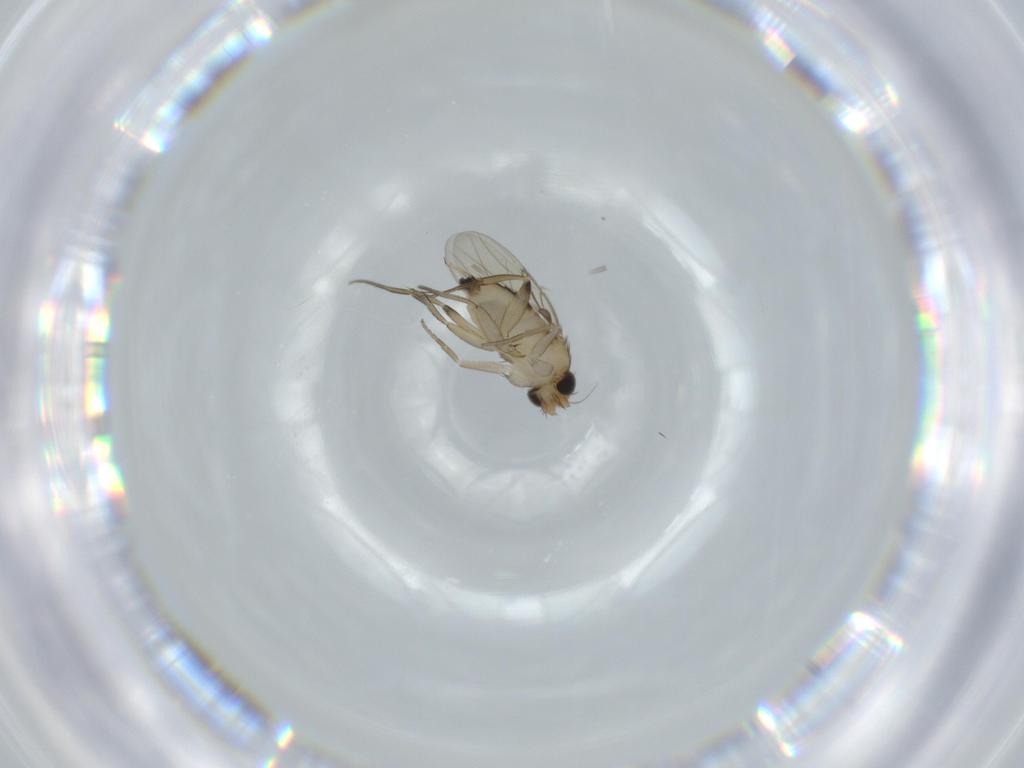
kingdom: Animalia
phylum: Arthropoda
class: Insecta
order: Diptera
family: Phoridae
